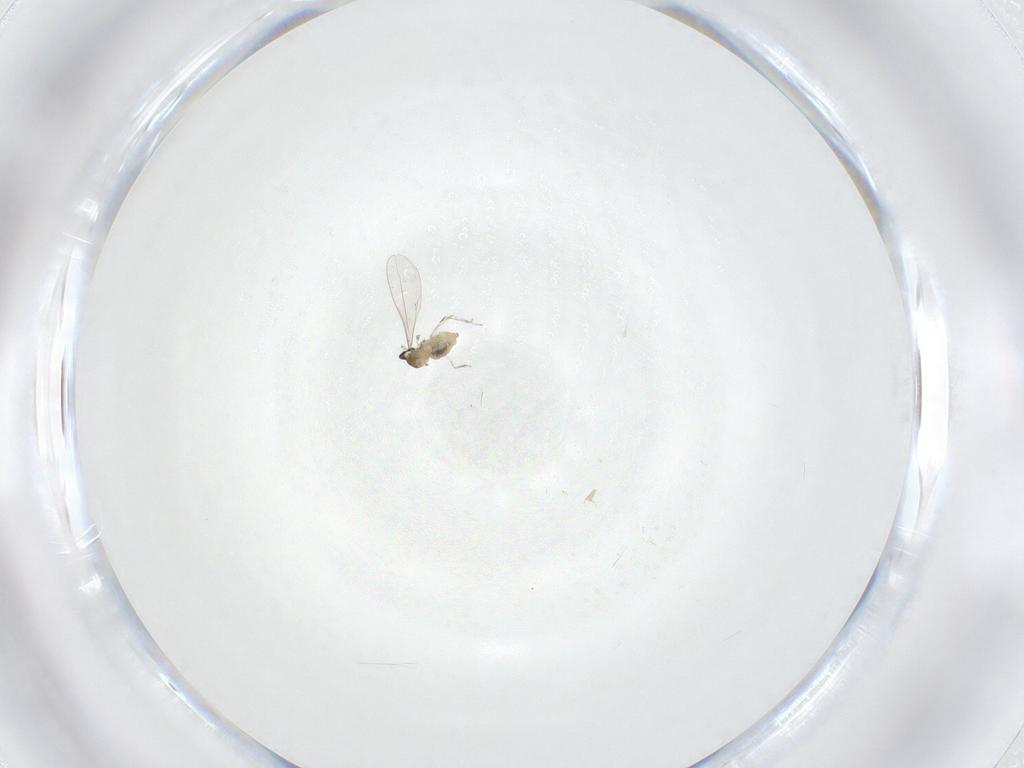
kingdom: Animalia
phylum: Arthropoda
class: Insecta
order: Diptera
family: Cecidomyiidae
